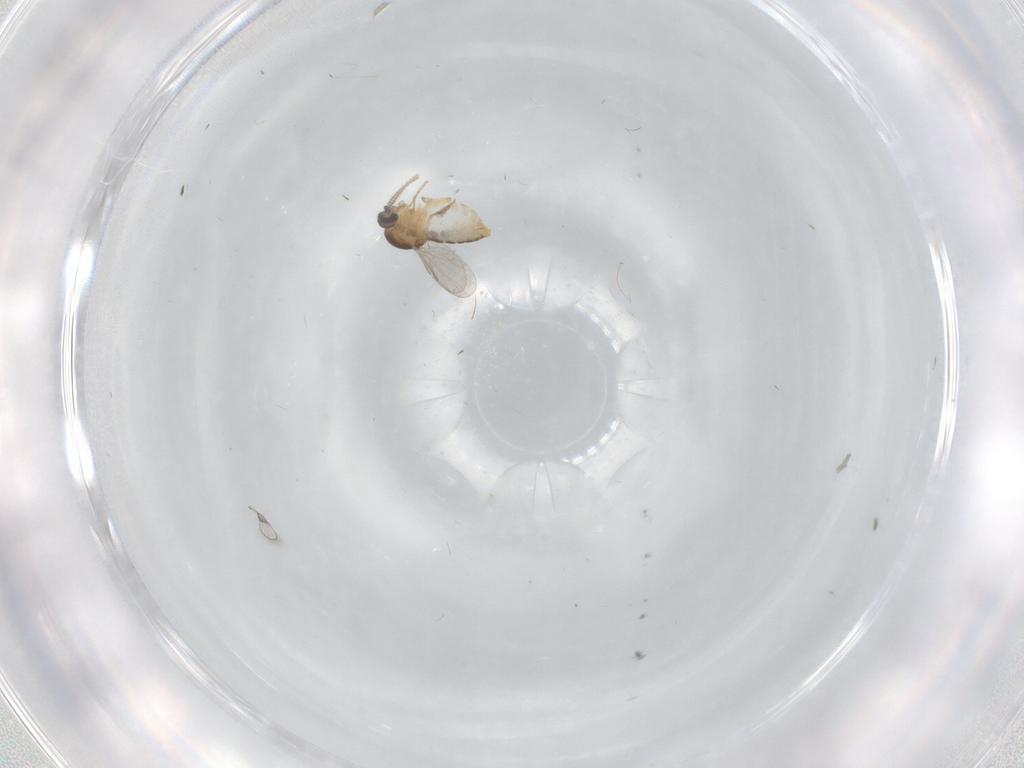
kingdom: Animalia
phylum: Arthropoda
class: Insecta
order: Diptera
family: Ceratopogonidae
